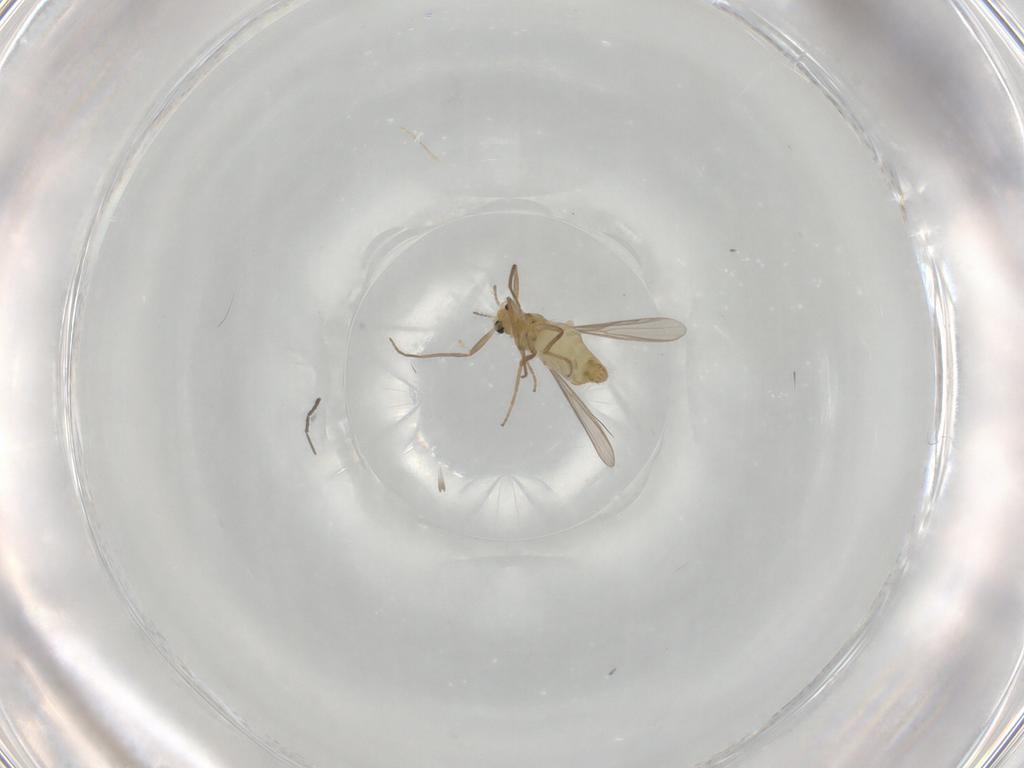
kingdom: Animalia
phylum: Arthropoda
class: Insecta
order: Diptera
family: Chironomidae
